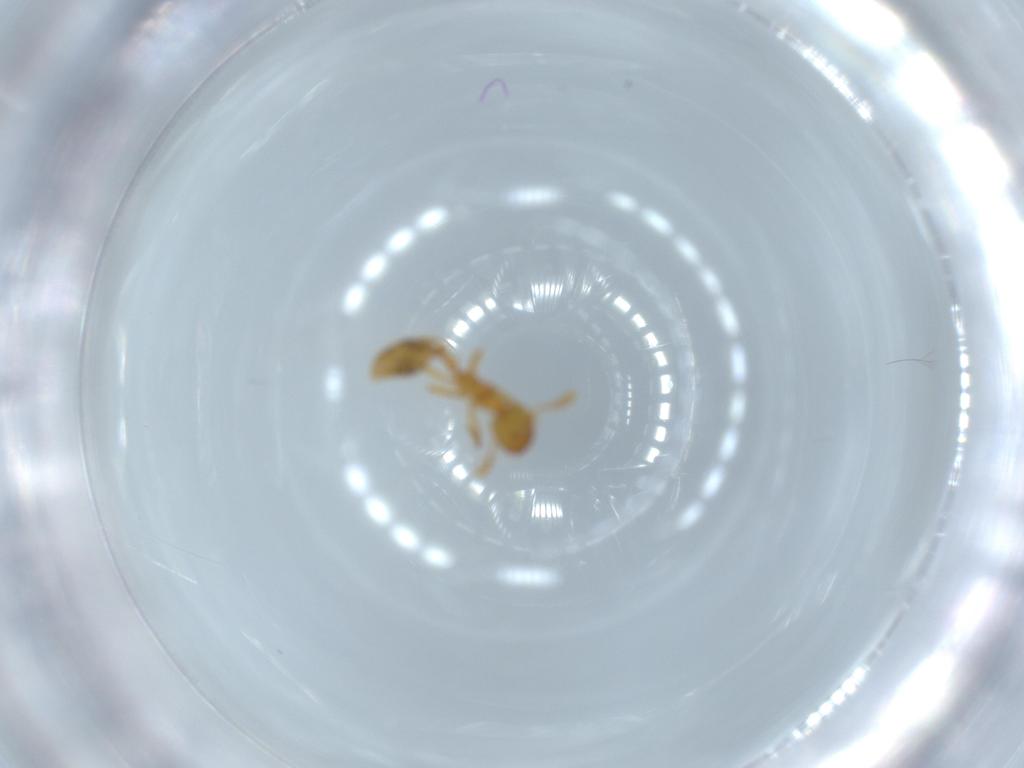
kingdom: Animalia
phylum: Arthropoda
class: Insecta
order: Hymenoptera
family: Formicidae
